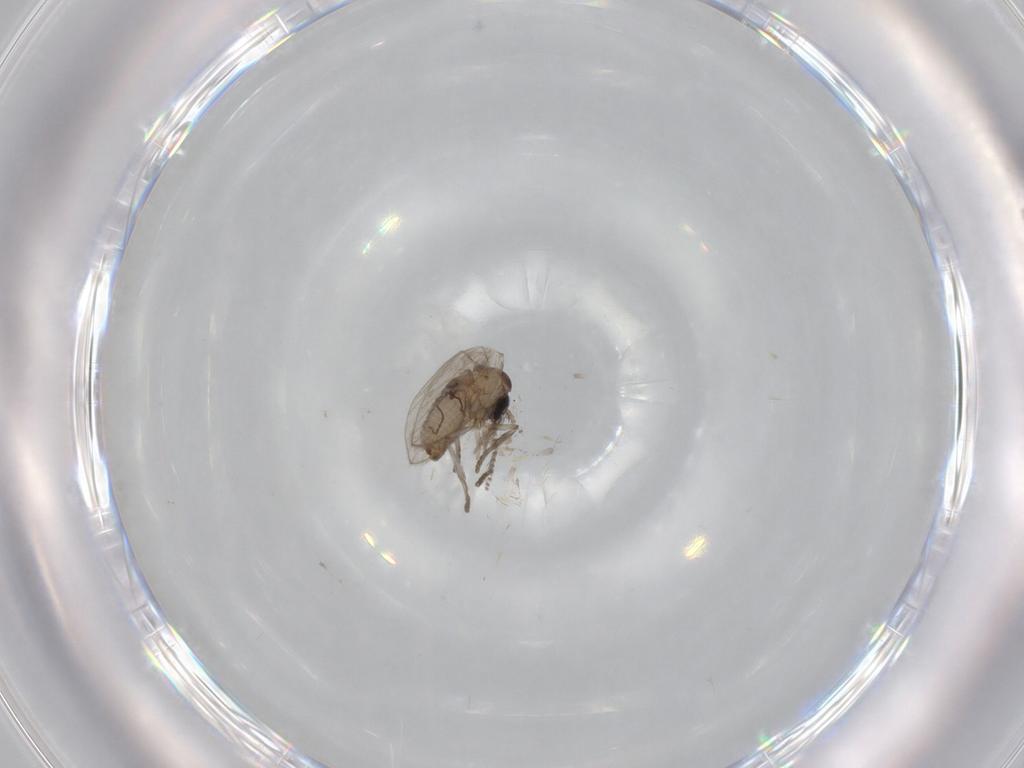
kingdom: Animalia
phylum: Arthropoda
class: Insecta
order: Diptera
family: Psychodidae
